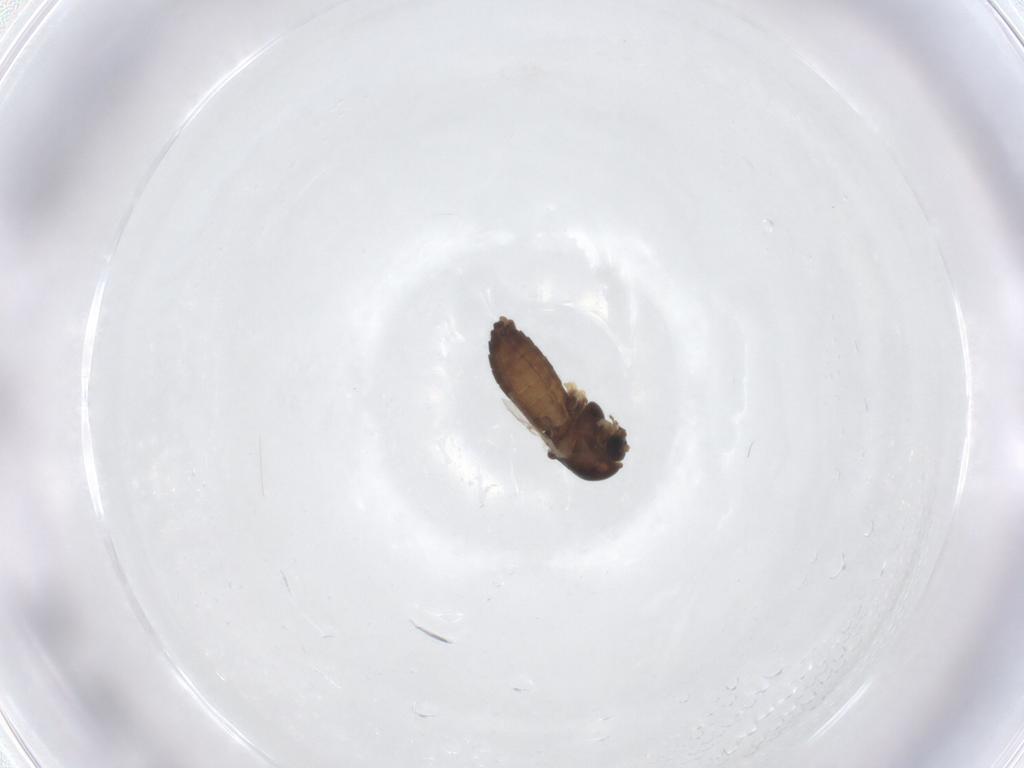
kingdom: Animalia
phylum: Arthropoda
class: Insecta
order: Diptera
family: Chironomidae
